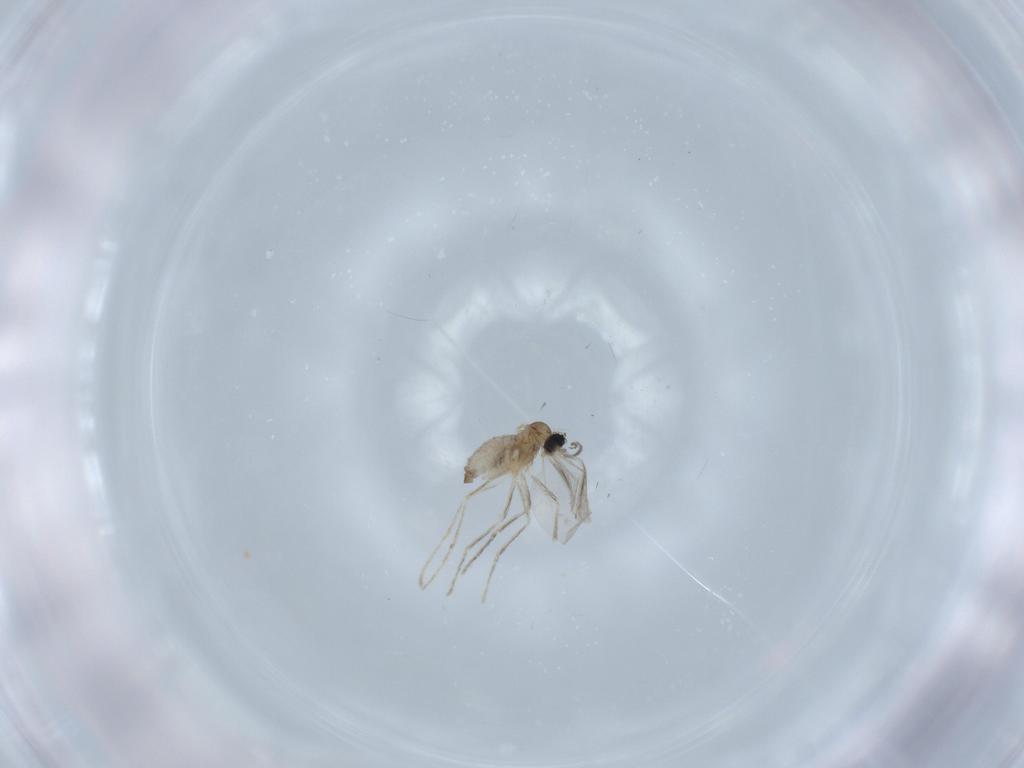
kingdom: Animalia
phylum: Arthropoda
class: Insecta
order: Diptera
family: Cecidomyiidae
